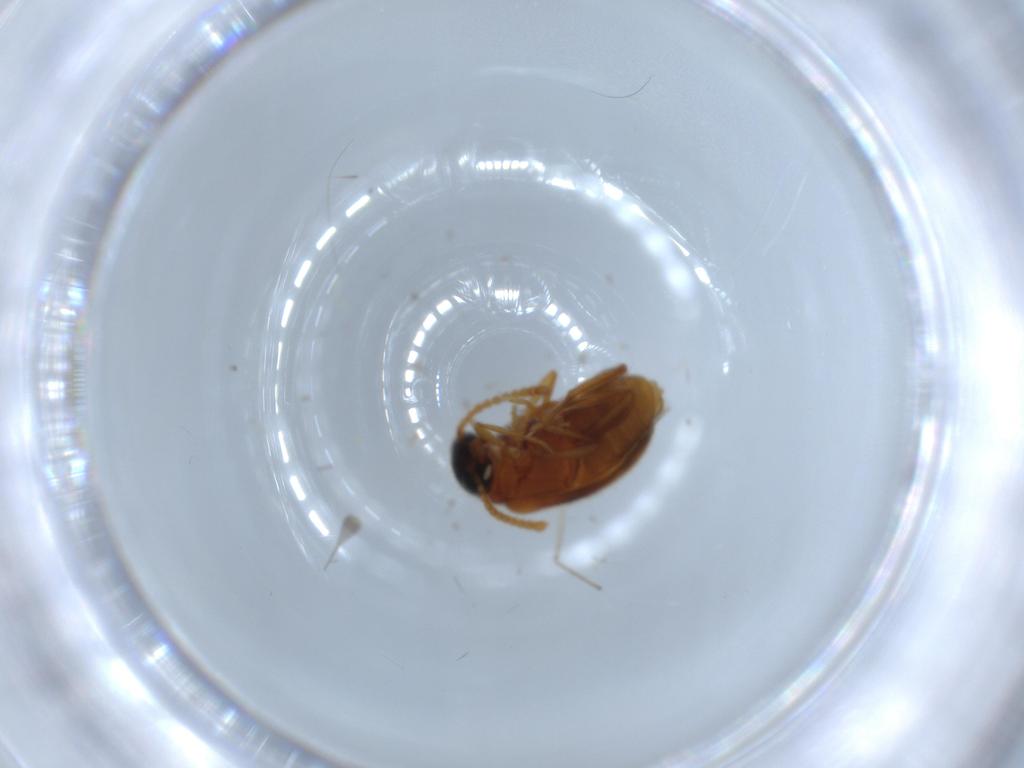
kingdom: Animalia
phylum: Arthropoda
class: Insecta
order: Coleoptera
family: Aderidae
